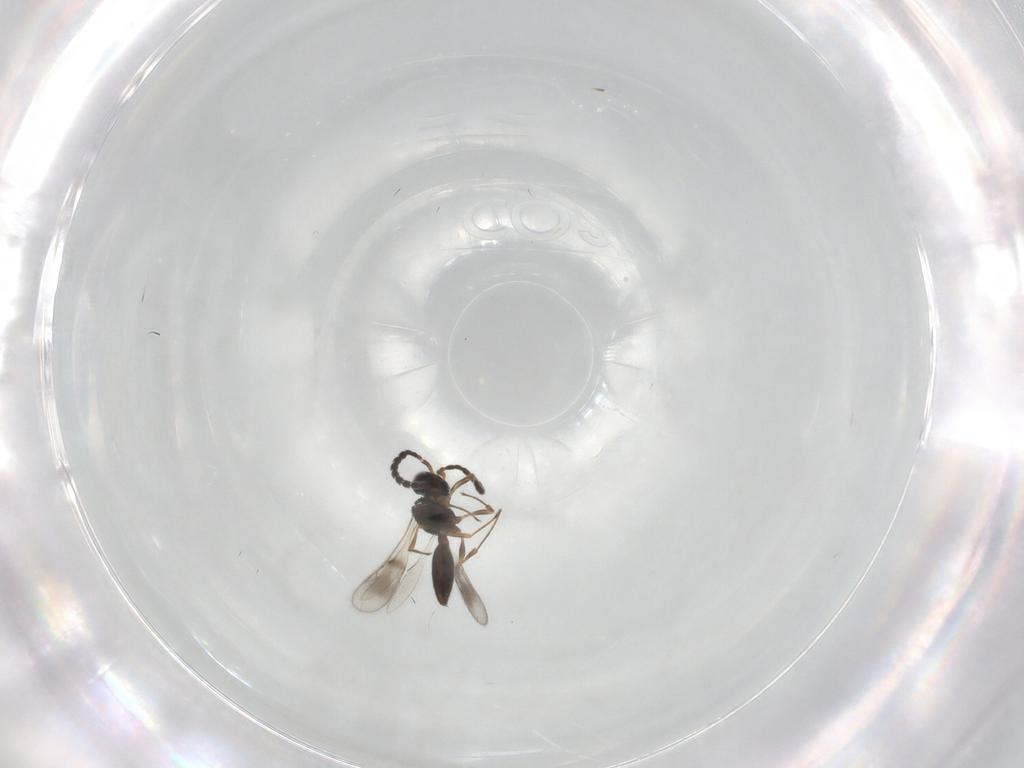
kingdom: Animalia
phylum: Arthropoda
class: Insecta
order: Hymenoptera
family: Scelionidae
